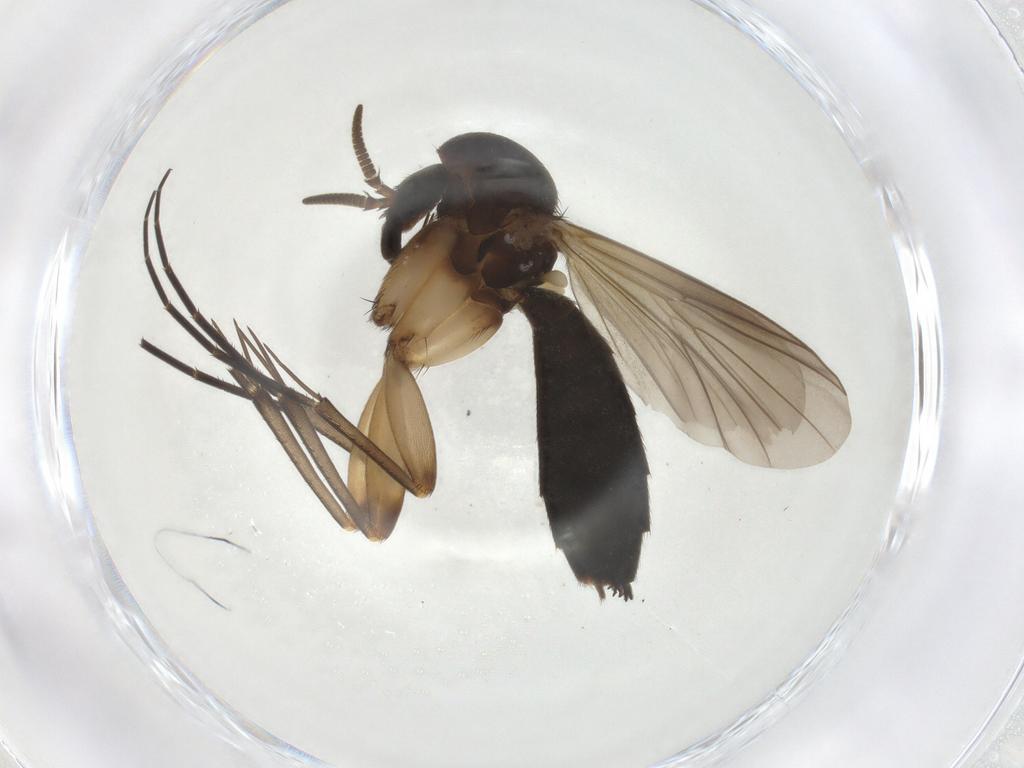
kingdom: Animalia
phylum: Arthropoda
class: Insecta
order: Diptera
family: Mycetophilidae
